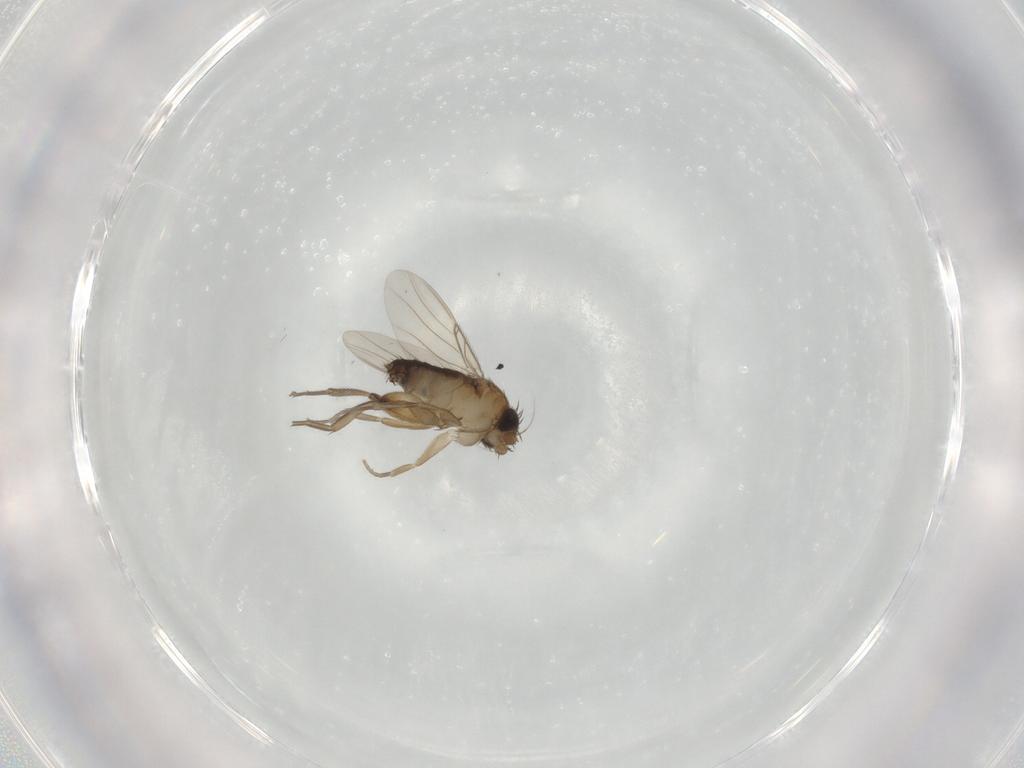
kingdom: Animalia
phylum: Arthropoda
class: Insecta
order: Diptera
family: Phoridae
